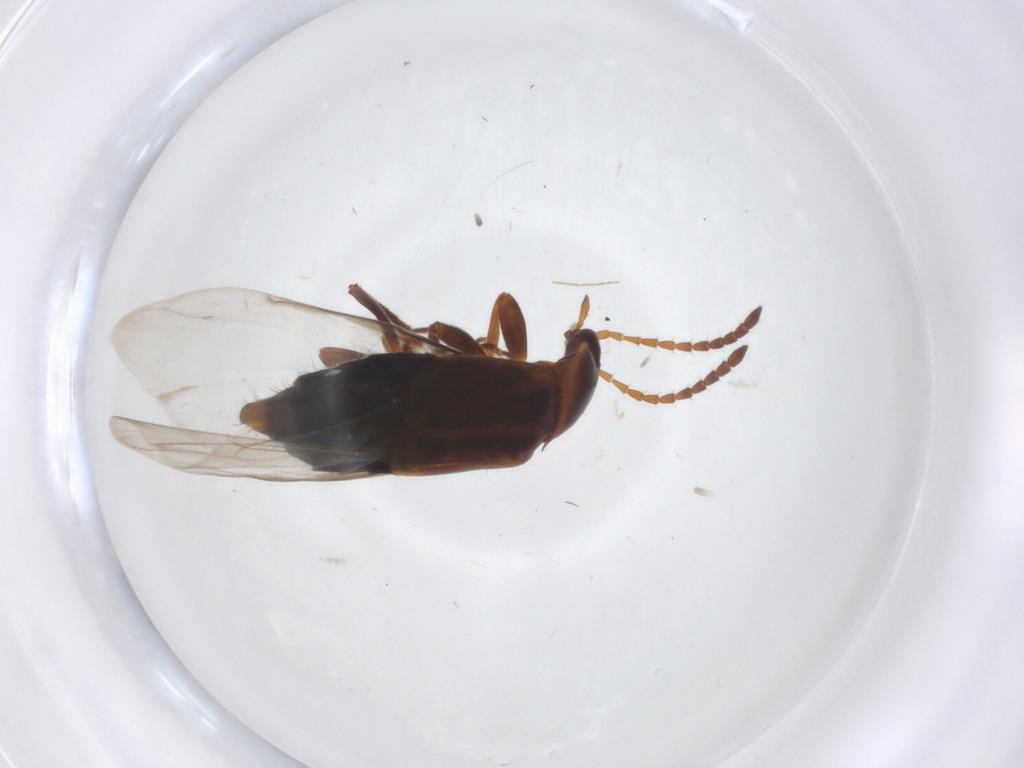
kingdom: Animalia
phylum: Arthropoda
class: Insecta
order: Coleoptera
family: Staphylinidae
